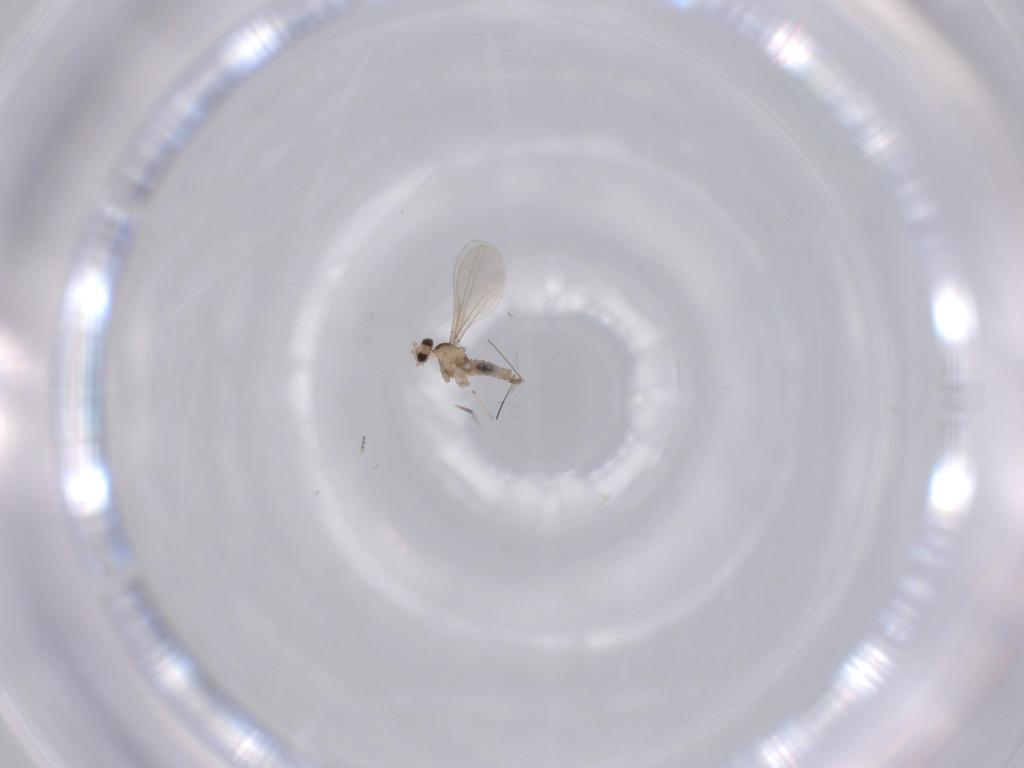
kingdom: Animalia
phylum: Arthropoda
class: Insecta
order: Diptera
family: Cecidomyiidae
